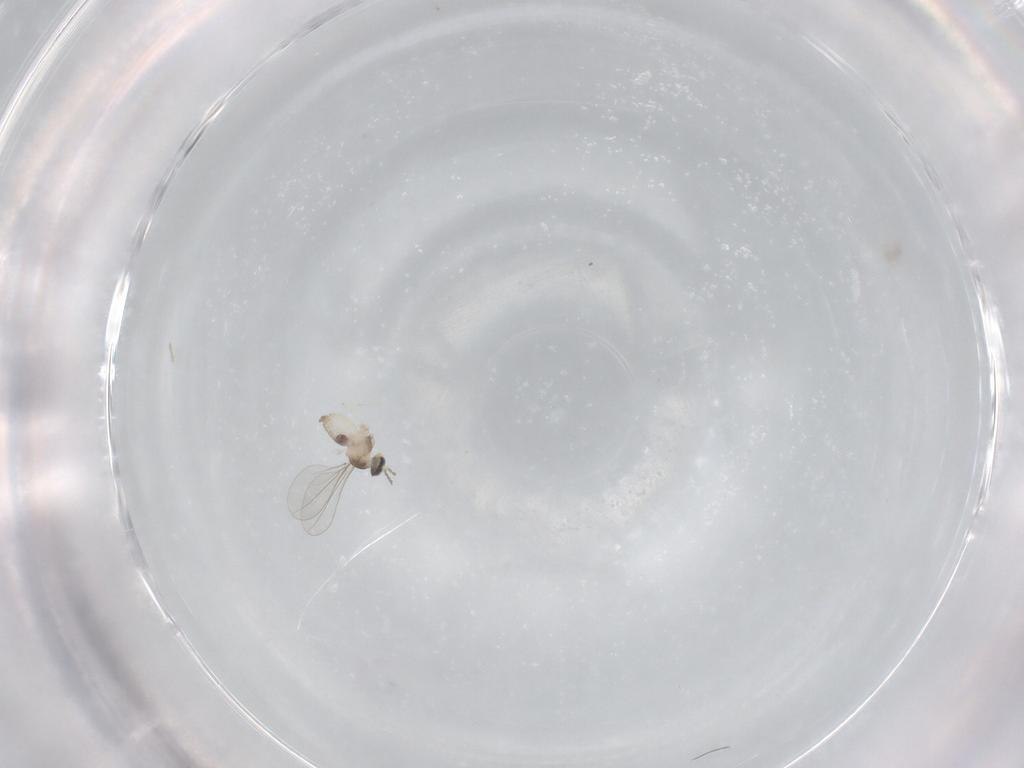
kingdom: Animalia
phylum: Arthropoda
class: Insecta
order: Diptera
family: Cecidomyiidae
